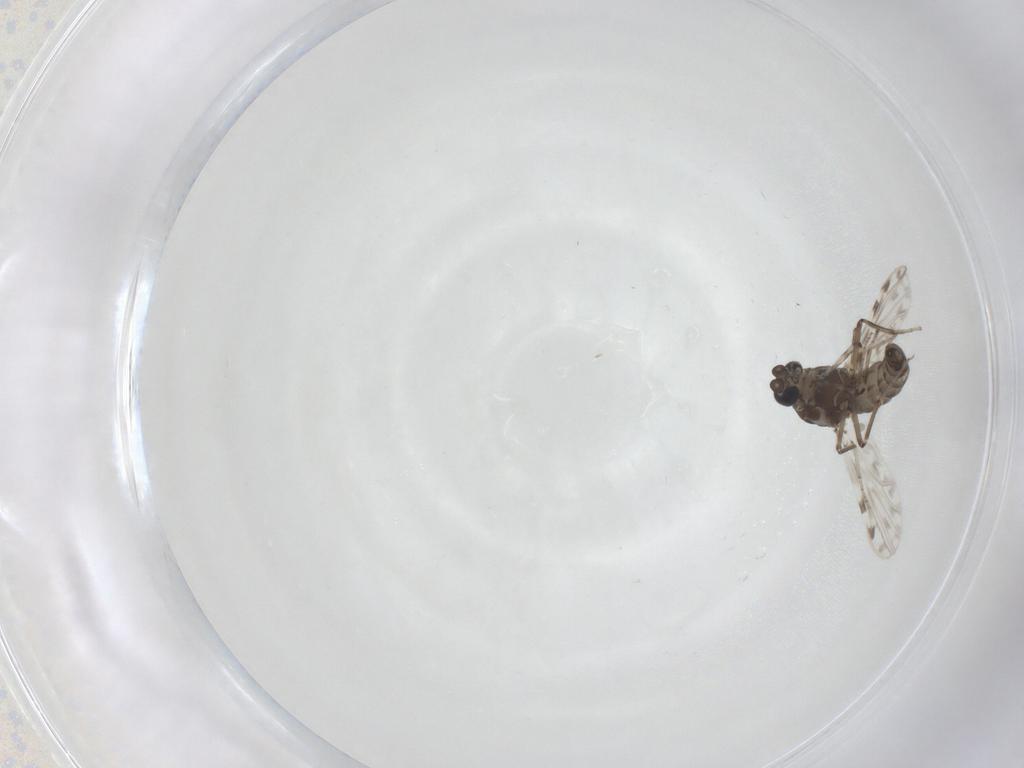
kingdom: Animalia
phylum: Arthropoda
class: Insecta
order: Diptera
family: Ceratopogonidae
